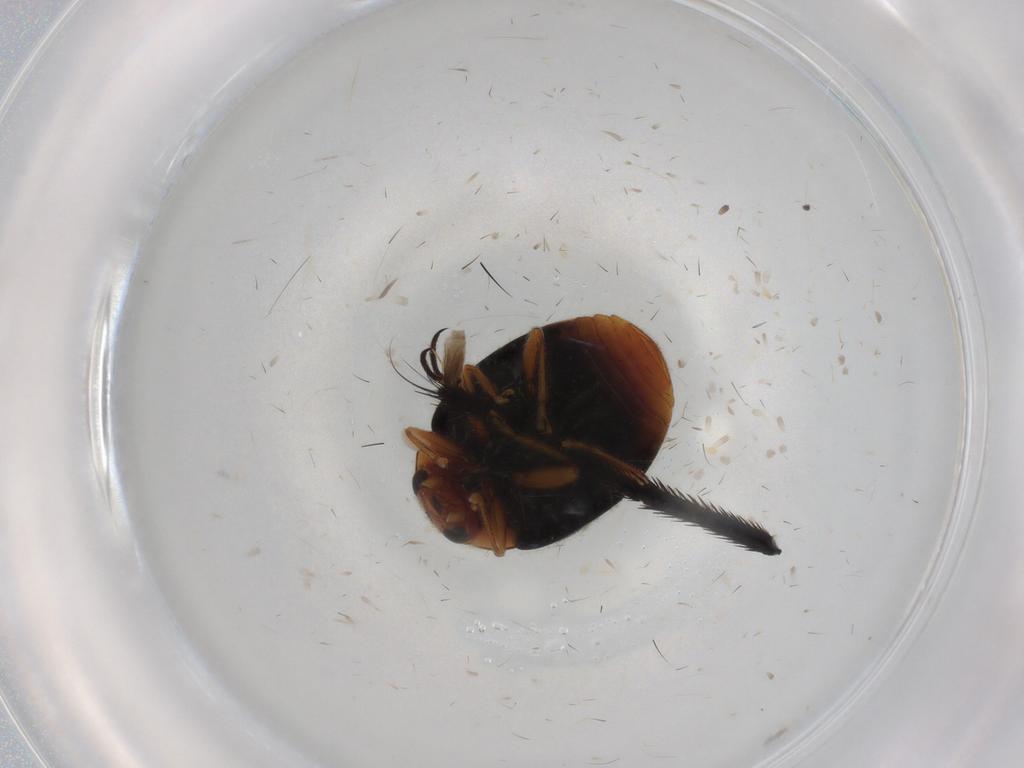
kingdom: Animalia
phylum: Arthropoda
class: Insecta
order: Coleoptera
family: Coccinellidae
